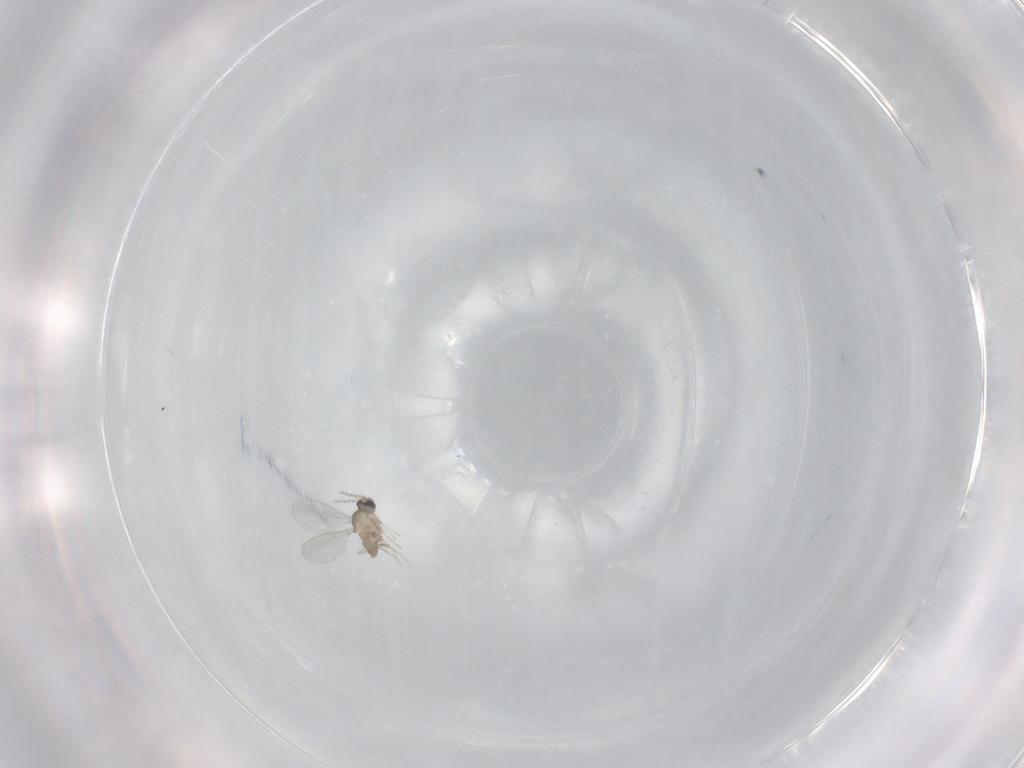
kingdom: Animalia
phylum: Arthropoda
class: Insecta
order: Diptera
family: Cecidomyiidae
